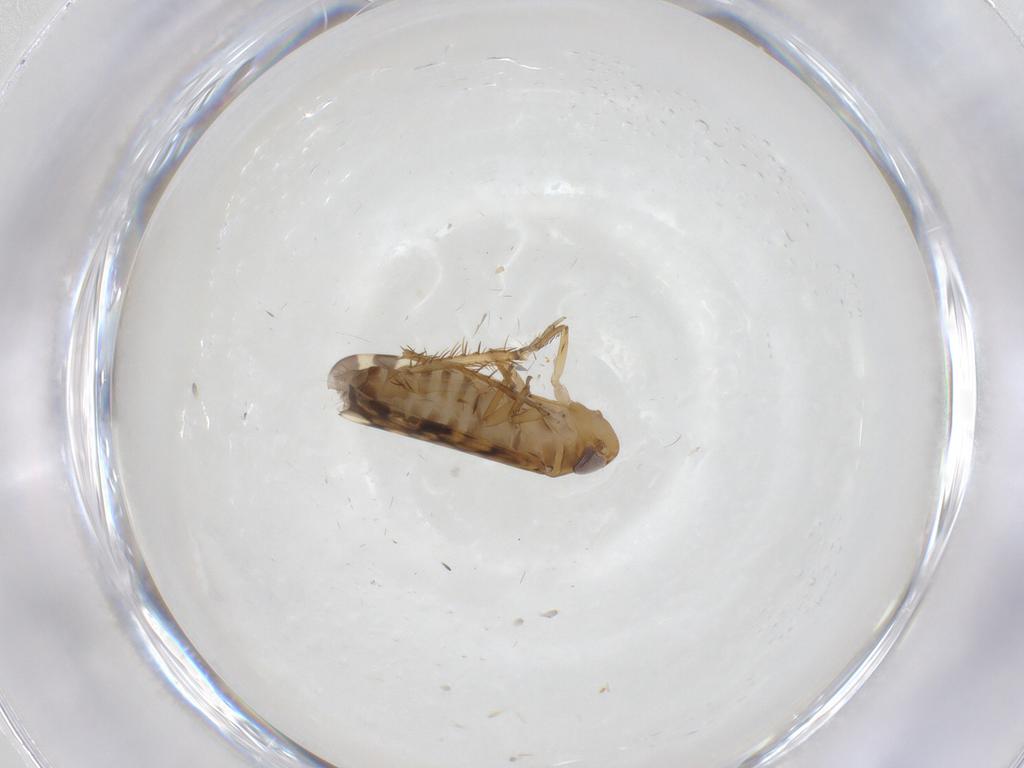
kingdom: Animalia
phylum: Arthropoda
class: Insecta
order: Hemiptera
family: Cicadellidae
